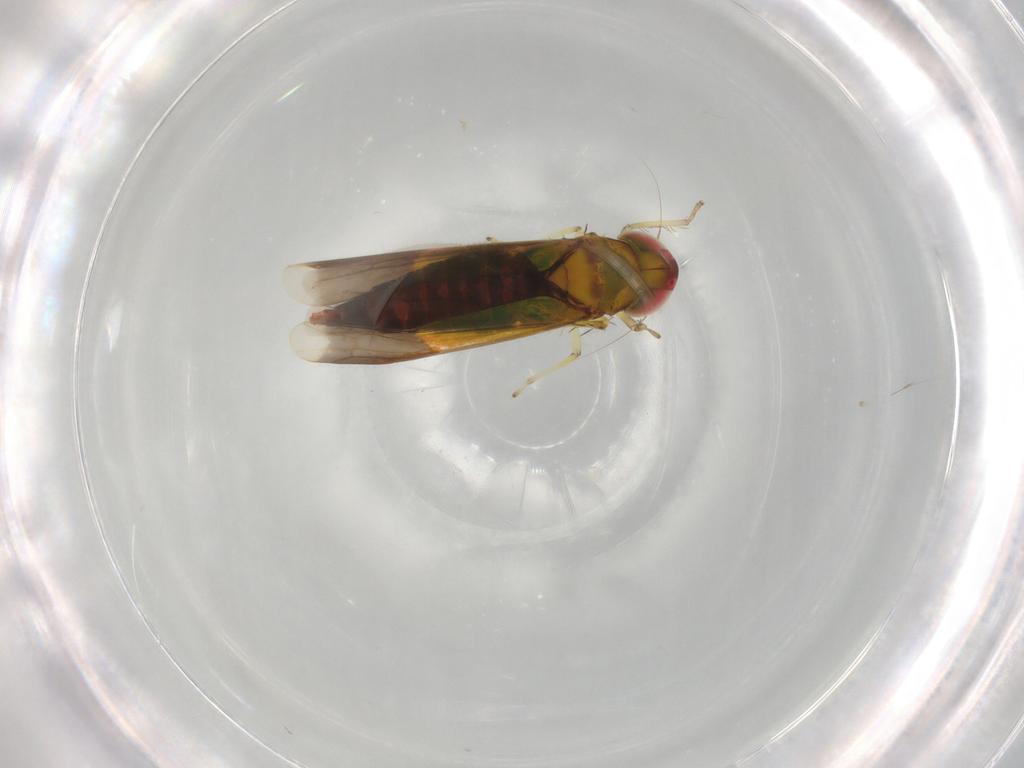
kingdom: Animalia
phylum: Arthropoda
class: Insecta
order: Hemiptera
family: Cicadellidae
